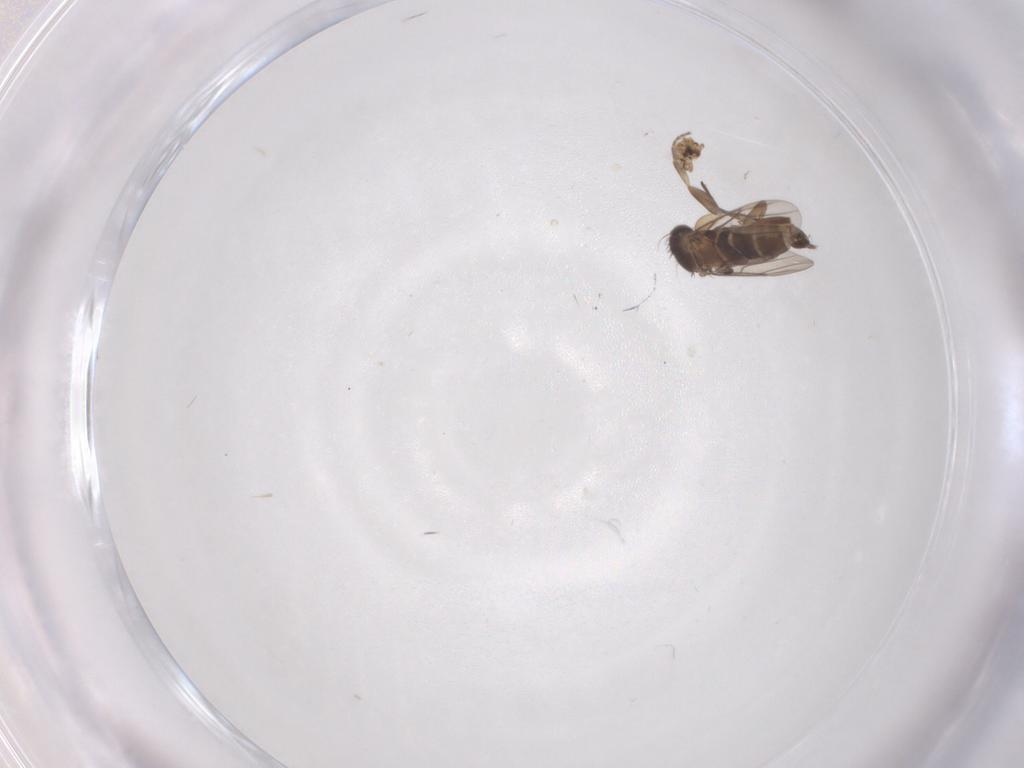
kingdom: Animalia
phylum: Arthropoda
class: Insecta
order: Diptera
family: Phoridae
